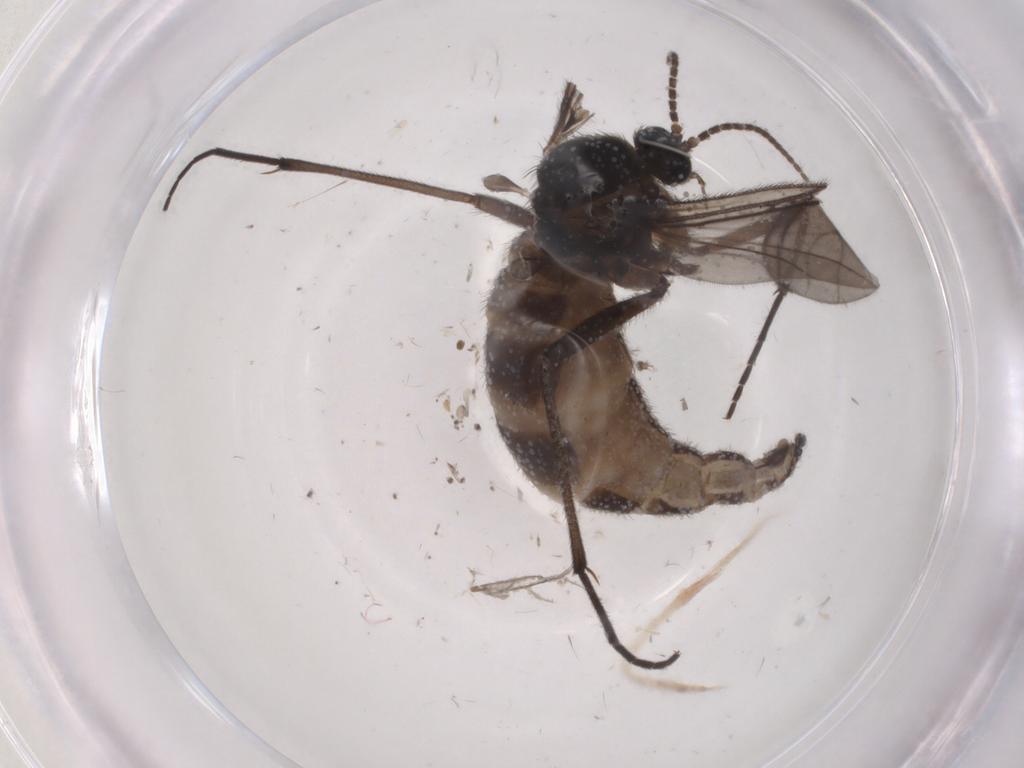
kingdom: Animalia
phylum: Arthropoda
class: Insecta
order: Diptera
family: Sciaridae
